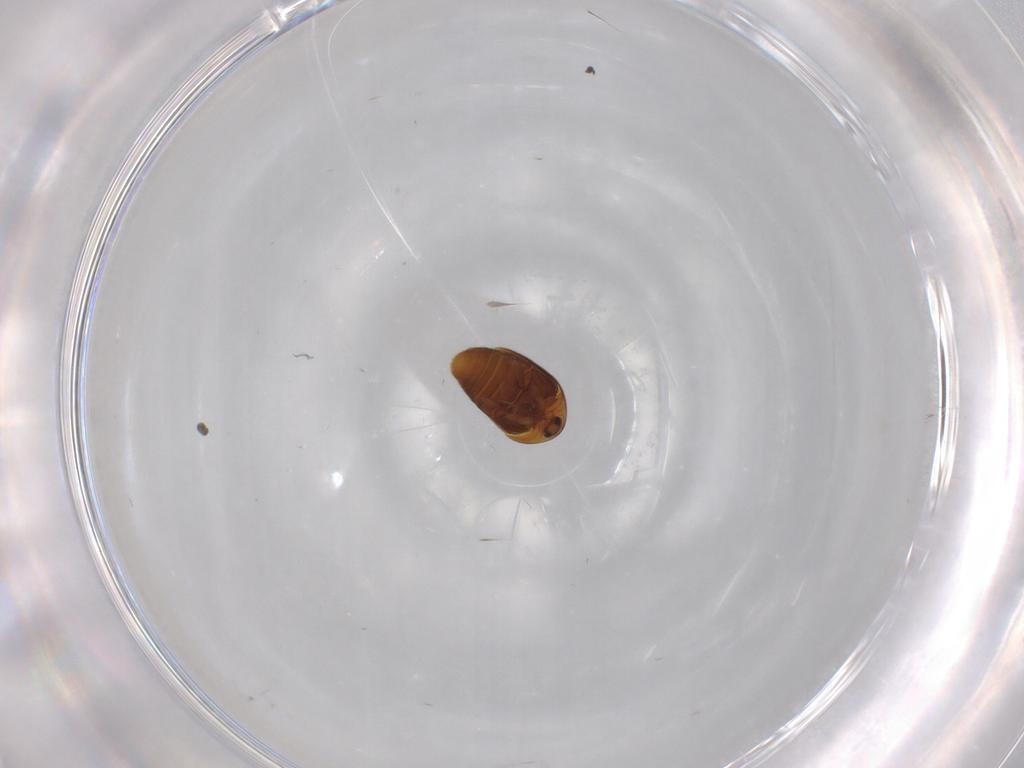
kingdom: Animalia
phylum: Arthropoda
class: Insecta
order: Coleoptera
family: Corylophidae
